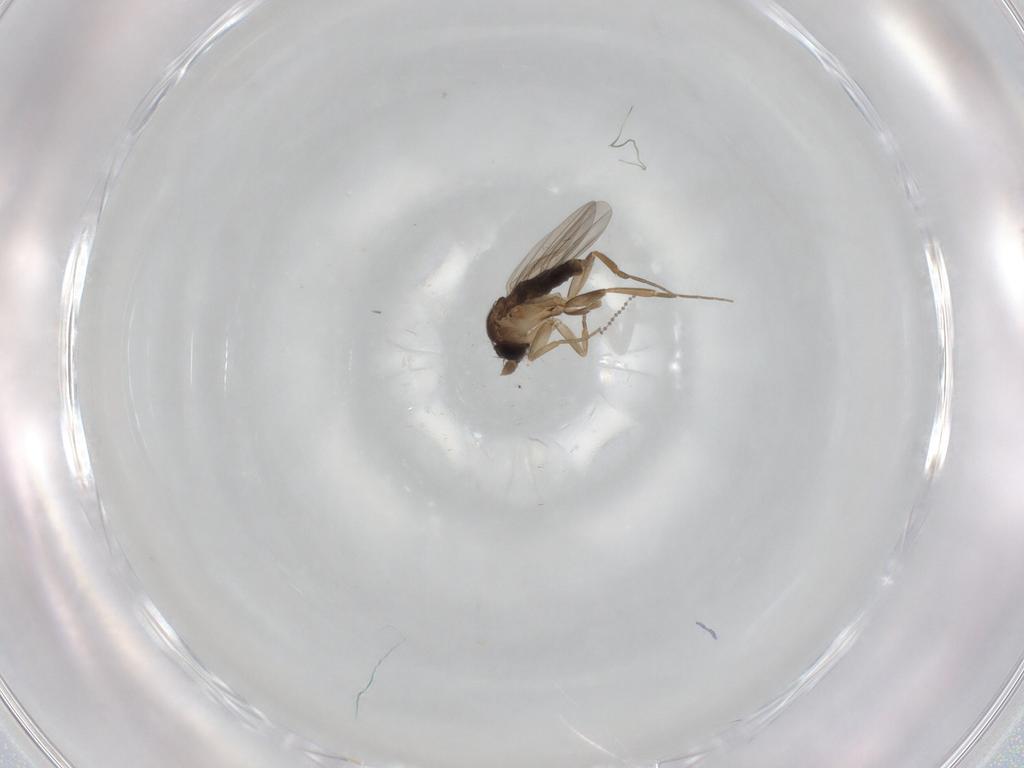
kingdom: Animalia
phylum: Arthropoda
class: Insecta
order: Diptera
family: Phoridae
